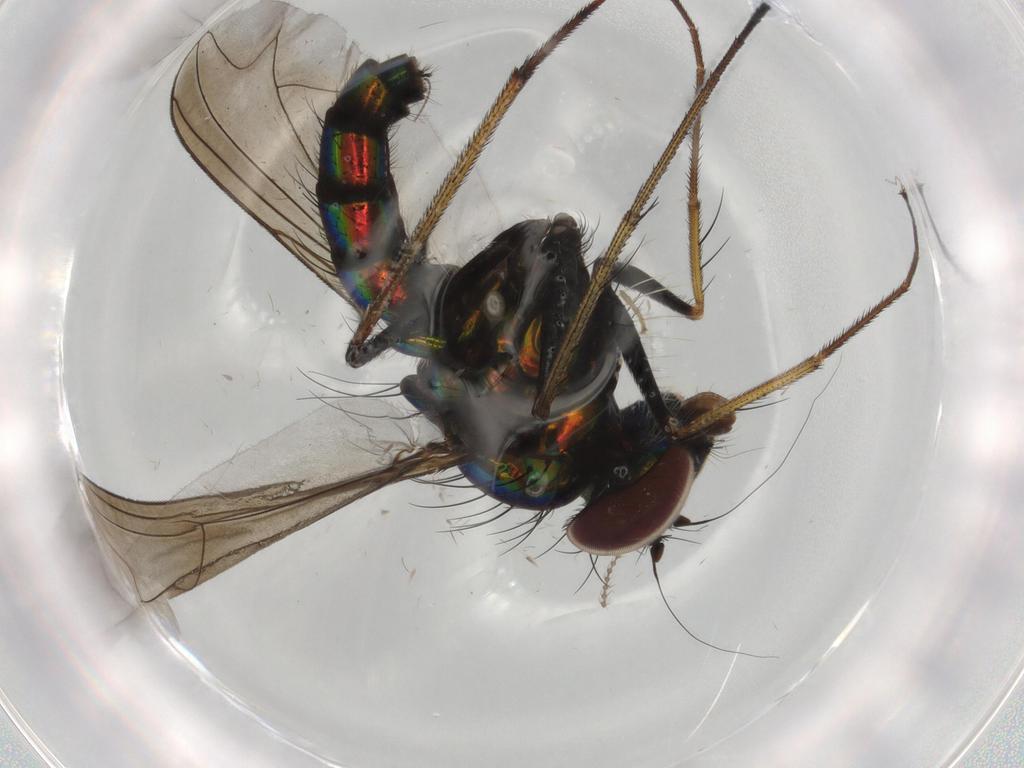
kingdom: Animalia
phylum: Arthropoda
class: Insecta
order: Diptera
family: Dolichopodidae
